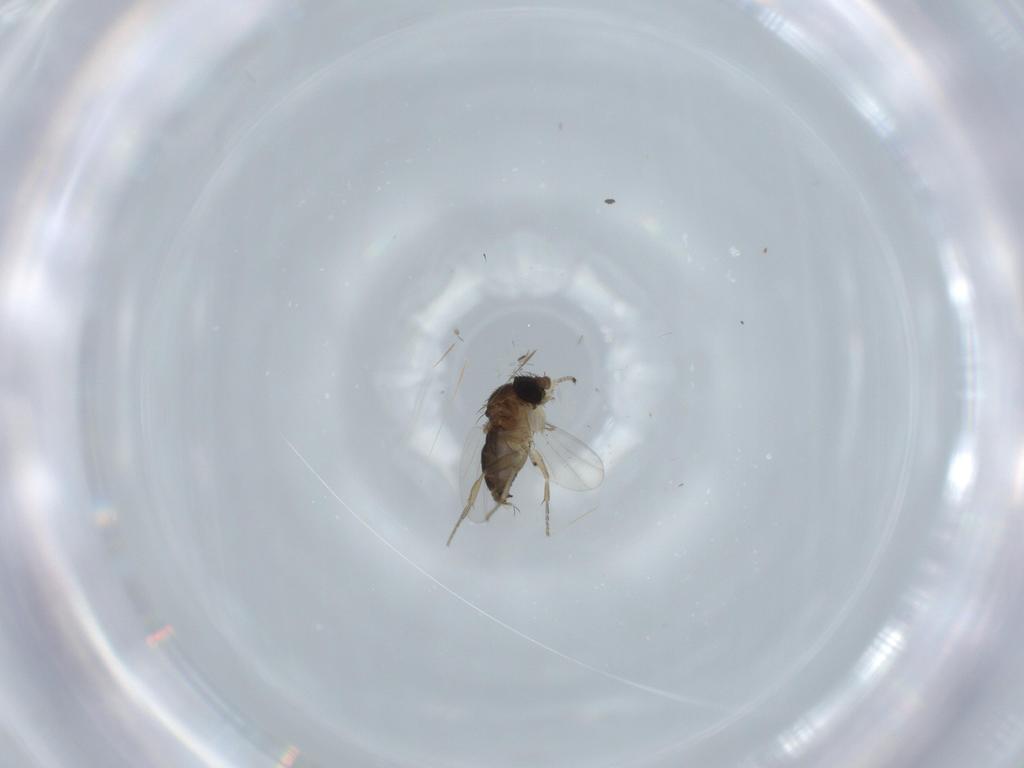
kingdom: Animalia
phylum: Arthropoda
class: Insecta
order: Diptera
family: Phoridae
